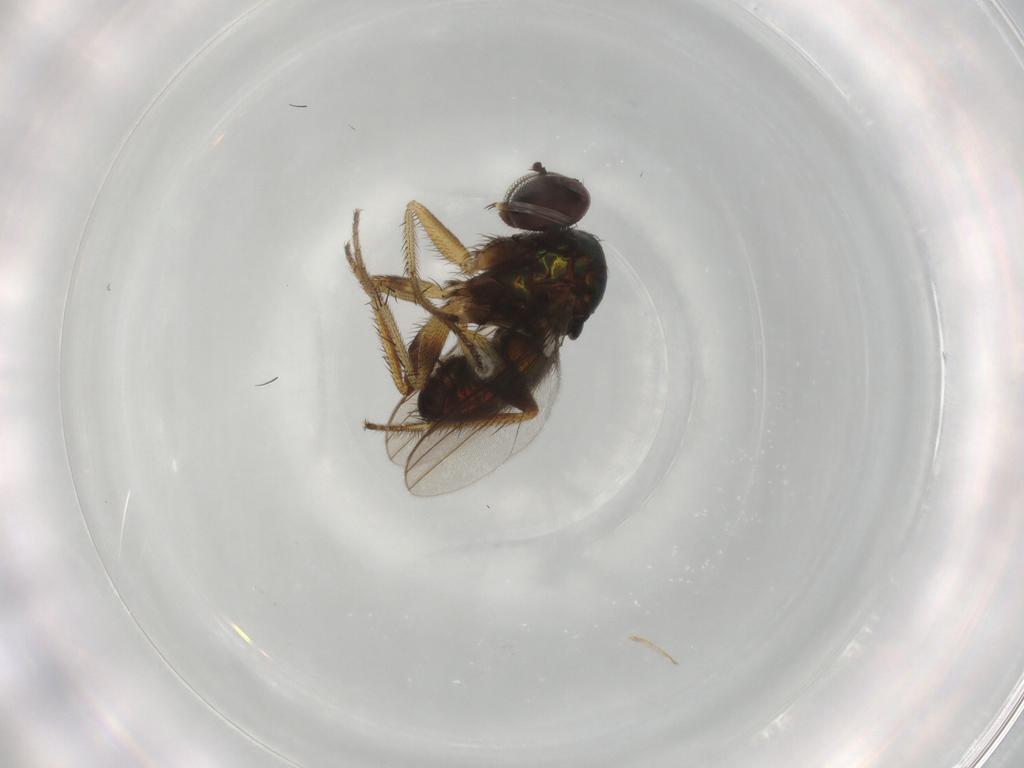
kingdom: Animalia
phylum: Arthropoda
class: Insecta
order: Diptera
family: Dolichopodidae
